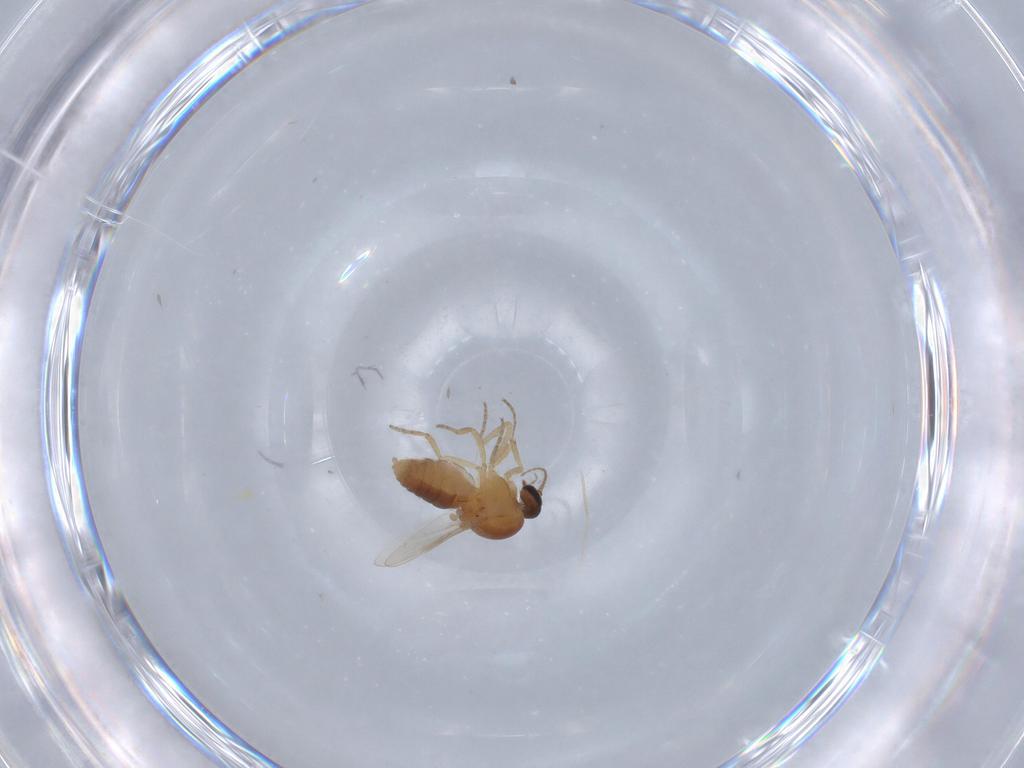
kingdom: Animalia
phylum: Arthropoda
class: Insecta
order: Diptera
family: Ceratopogonidae
